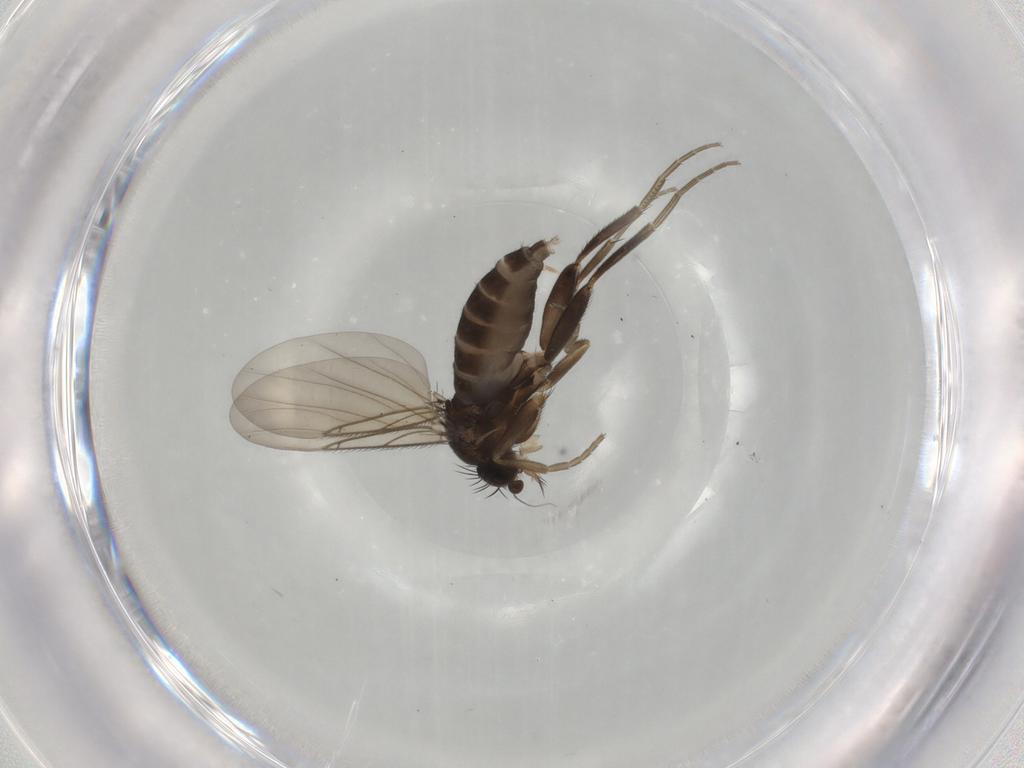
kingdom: Animalia
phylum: Arthropoda
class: Insecta
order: Diptera
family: Phoridae
